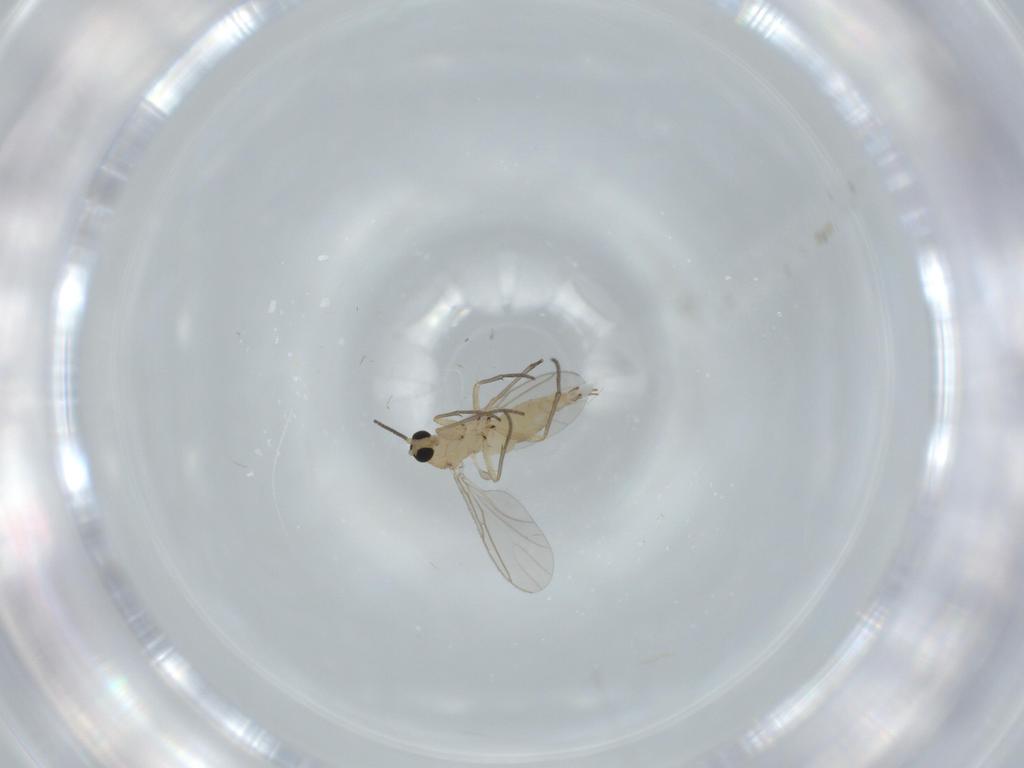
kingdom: Animalia
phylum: Arthropoda
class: Insecta
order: Diptera
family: Sciaridae
